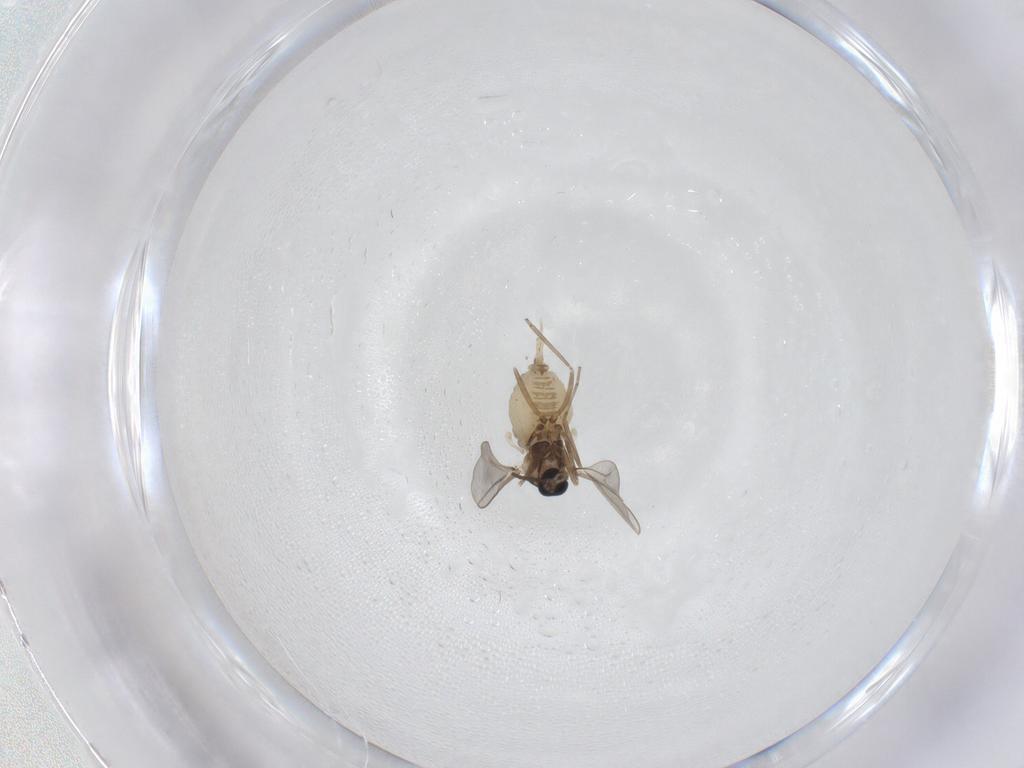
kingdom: Animalia
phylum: Arthropoda
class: Insecta
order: Diptera
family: Cecidomyiidae
